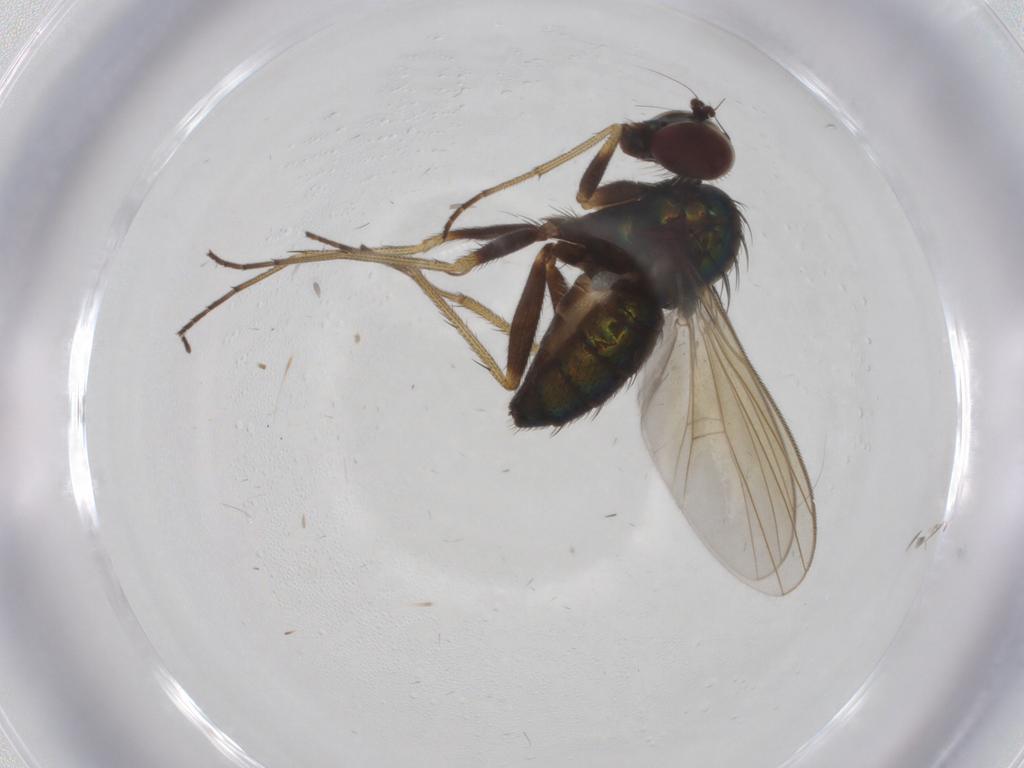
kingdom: Animalia
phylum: Arthropoda
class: Insecta
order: Diptera
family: Dolichopodidae
